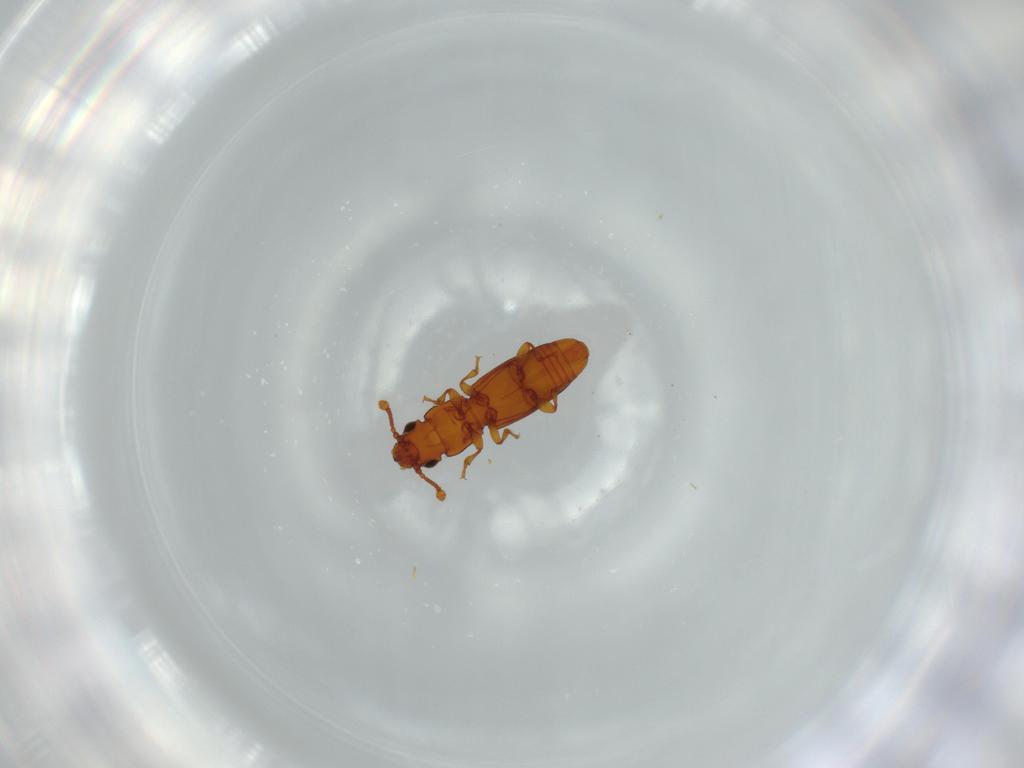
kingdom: Animalia
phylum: Arthropoda
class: Insecta
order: Coleoptera
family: Monotomidae
